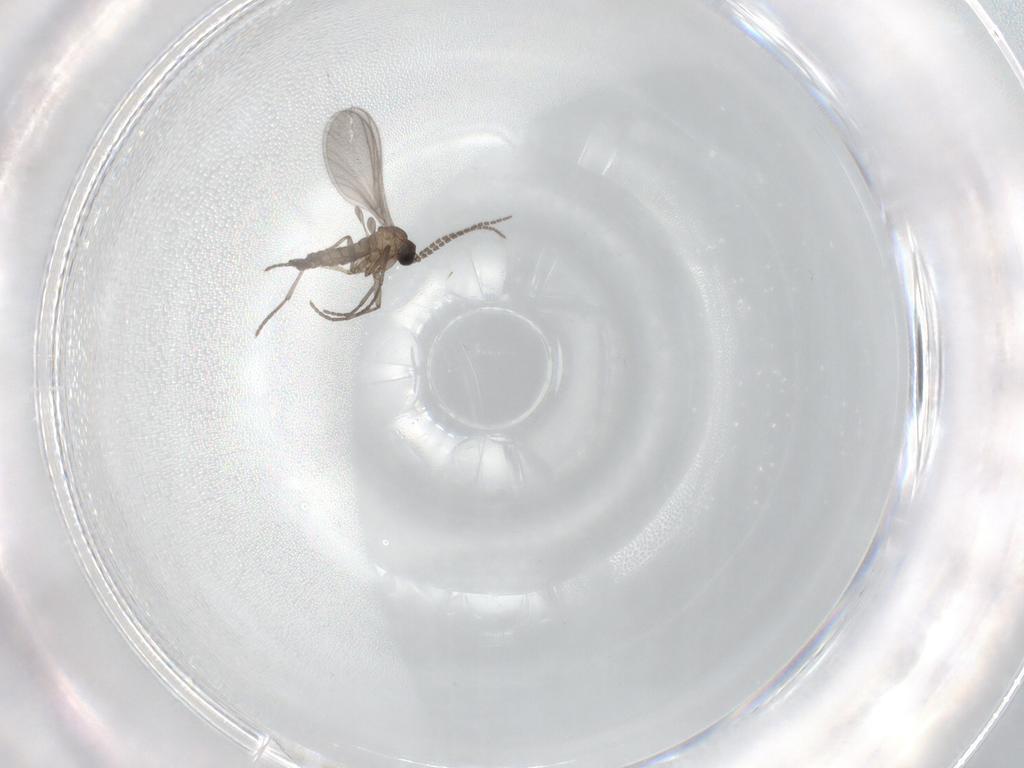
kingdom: Animalia
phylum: Arthropoda
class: Insecta
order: Diptera
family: Sciaridae
